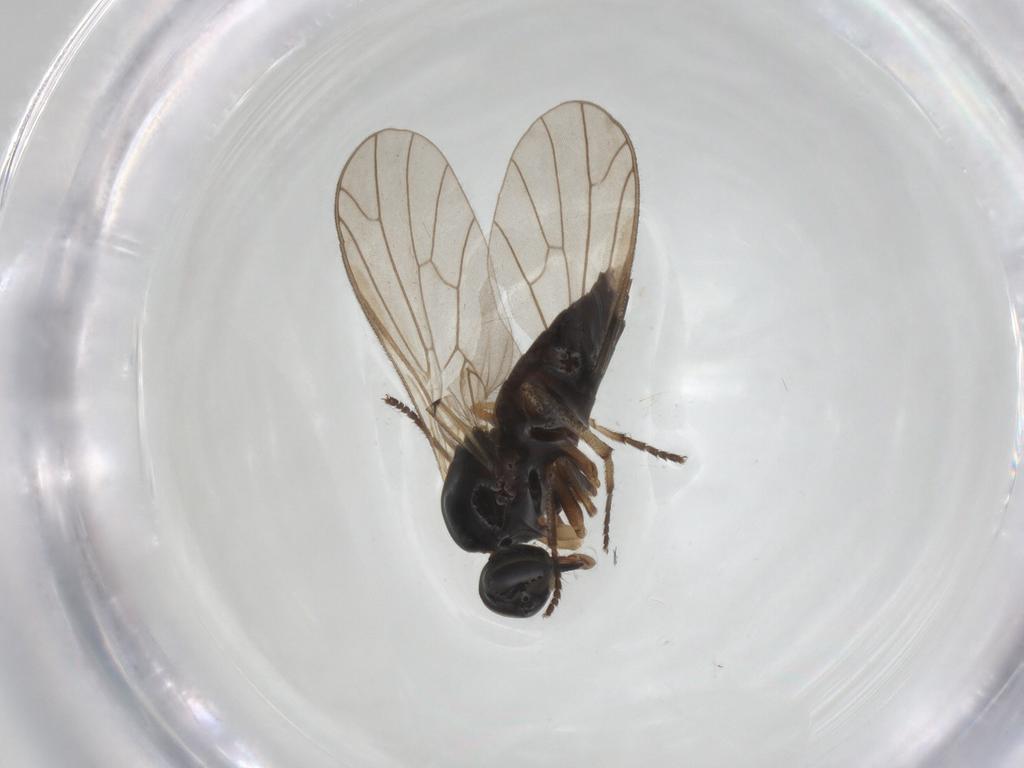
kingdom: Animalia
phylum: Arthropoda
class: Insecta
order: Diptera
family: Empididae
